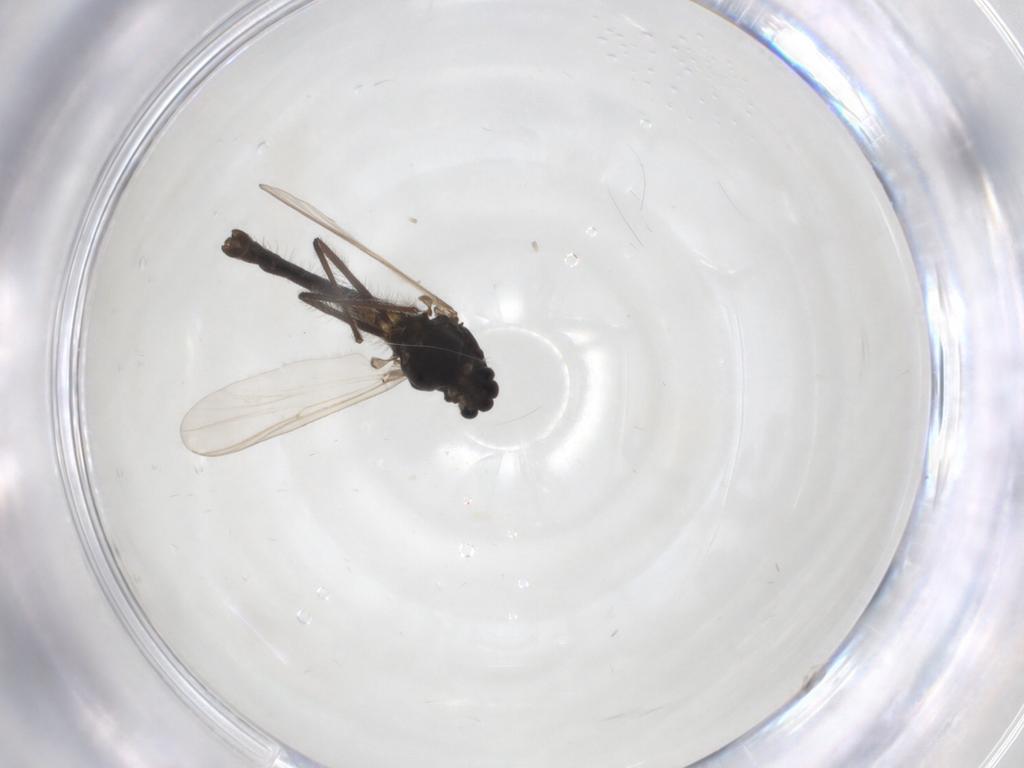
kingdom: Animalia
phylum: Arthropoda
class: Insecta
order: Diptera
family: Chironomidae
